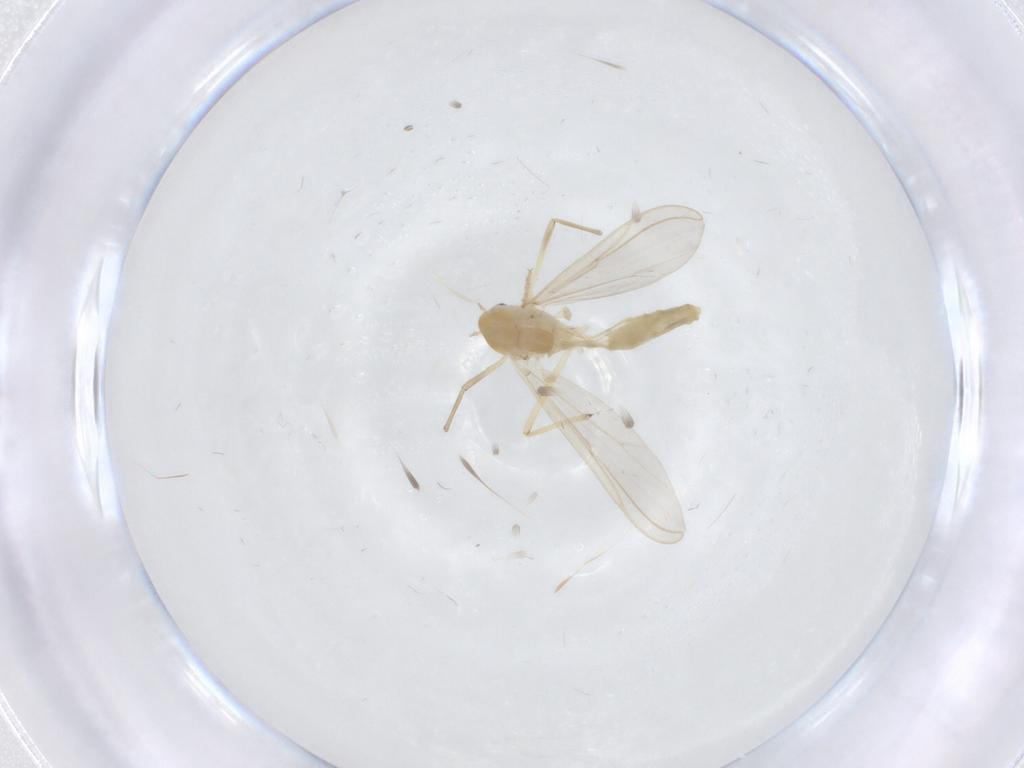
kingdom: Animalia
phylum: Arthropoda
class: Insecta
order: Diptera
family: Chironomidae
